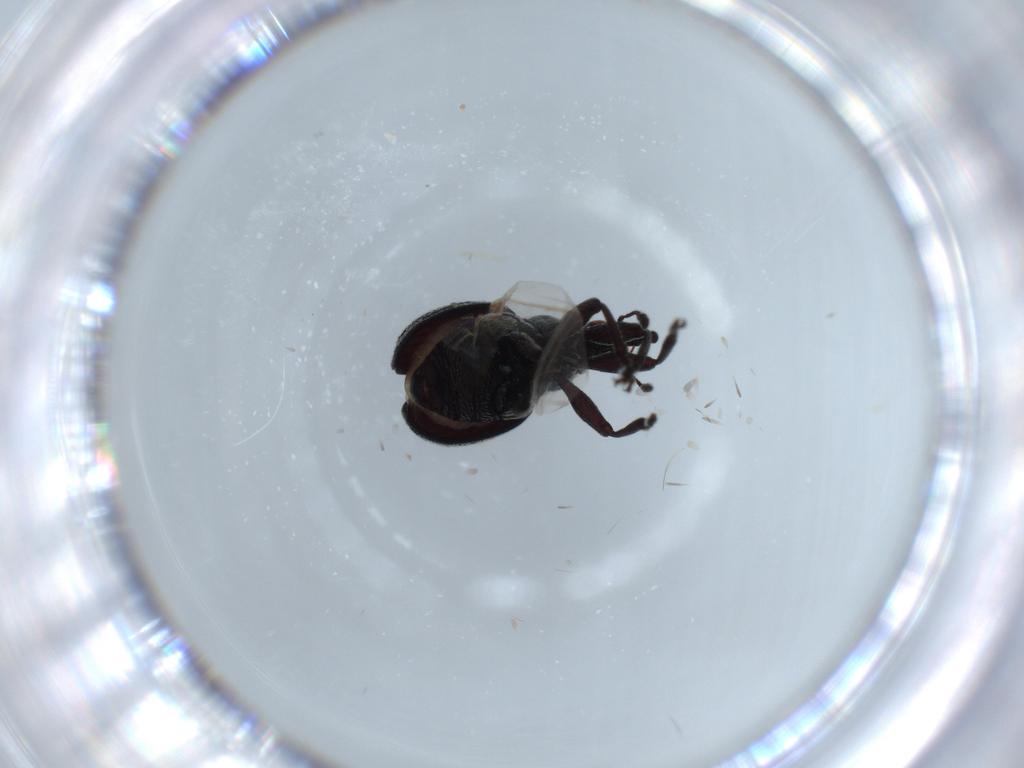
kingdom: Animalia
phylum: Arthropoda
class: Insecta
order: Coleoptera
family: Brentidae
